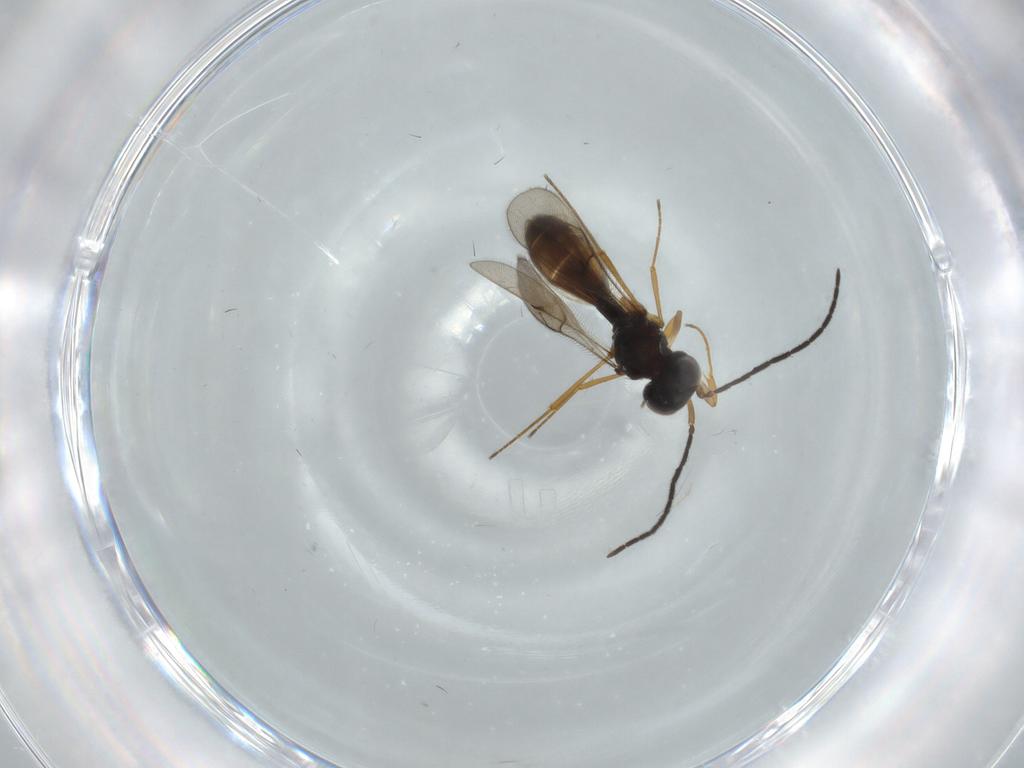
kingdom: Animalia
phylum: Arthropoda
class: Insecta
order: Hymenoptera
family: Figitidae
